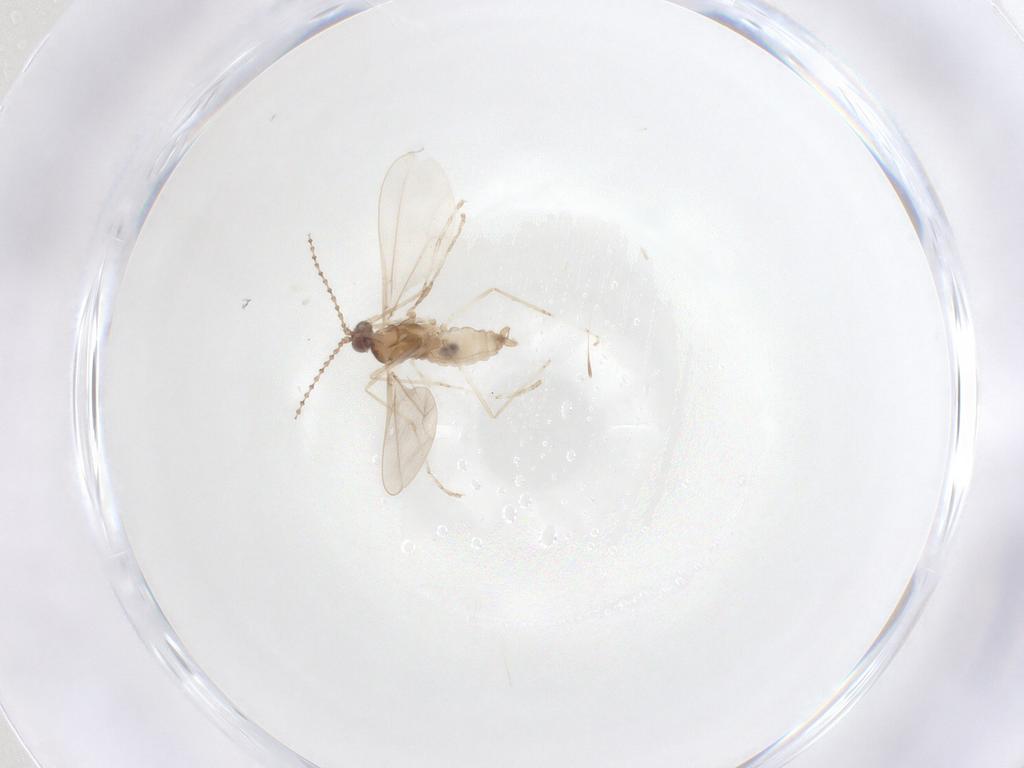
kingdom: Animalia
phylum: Arthropoda
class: Insecta
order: Diptera
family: Cecidomyiidae
